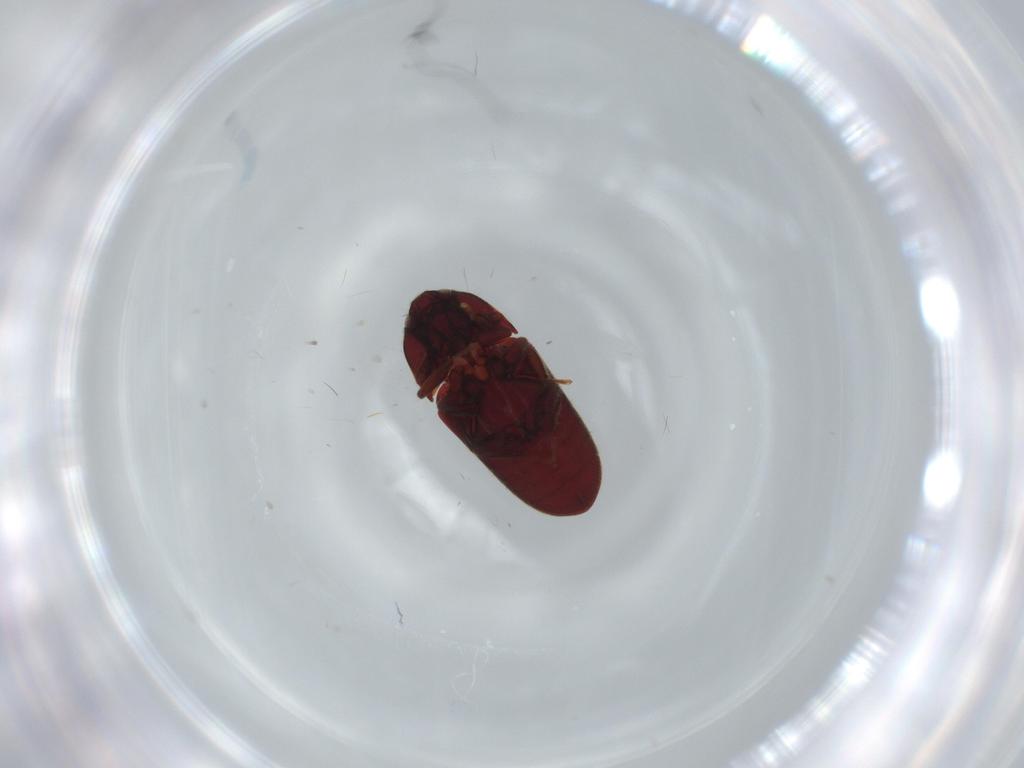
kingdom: Animalia
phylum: Arthropoda
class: Insecta
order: Coleoptera
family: Throscidae
